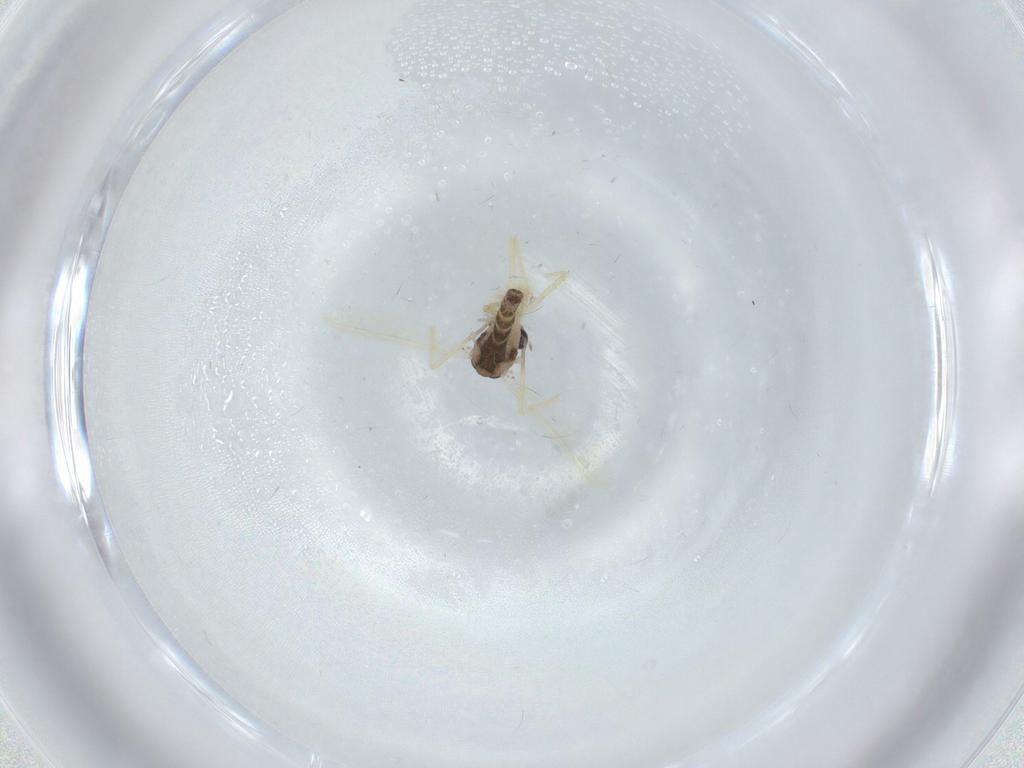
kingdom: Animalia
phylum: Arthropoda
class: Insecta
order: Diptera
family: Chironomidae
